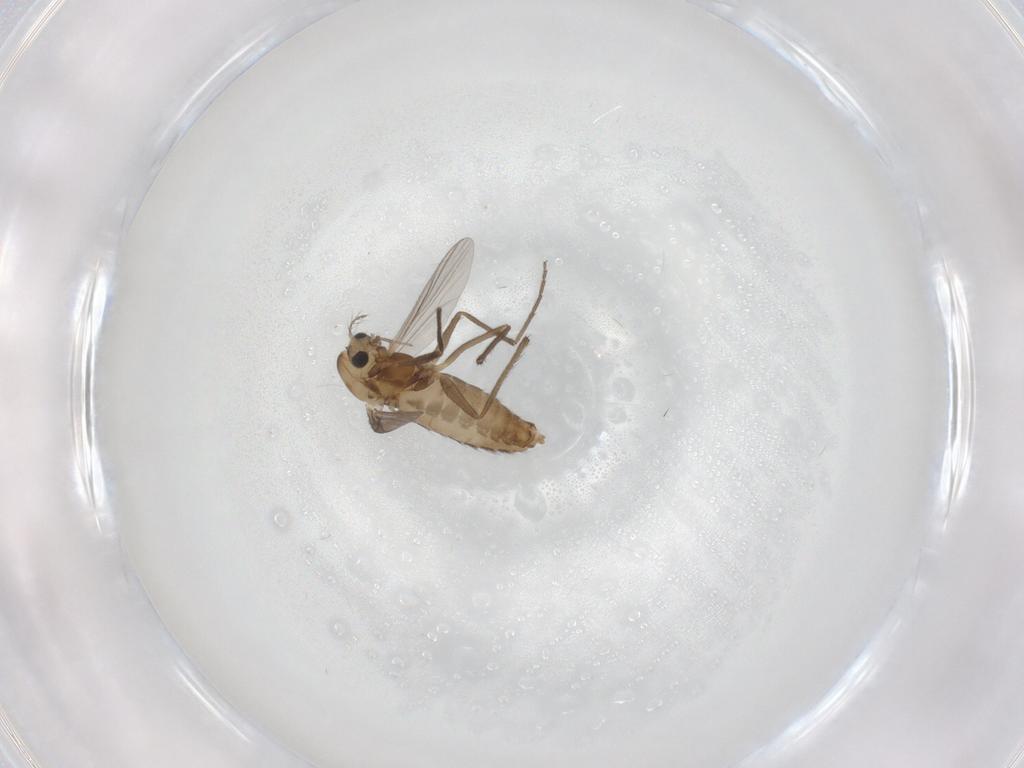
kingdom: Animalia
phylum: Arthropoda
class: Insecta
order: Diptera
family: Chironomidae
